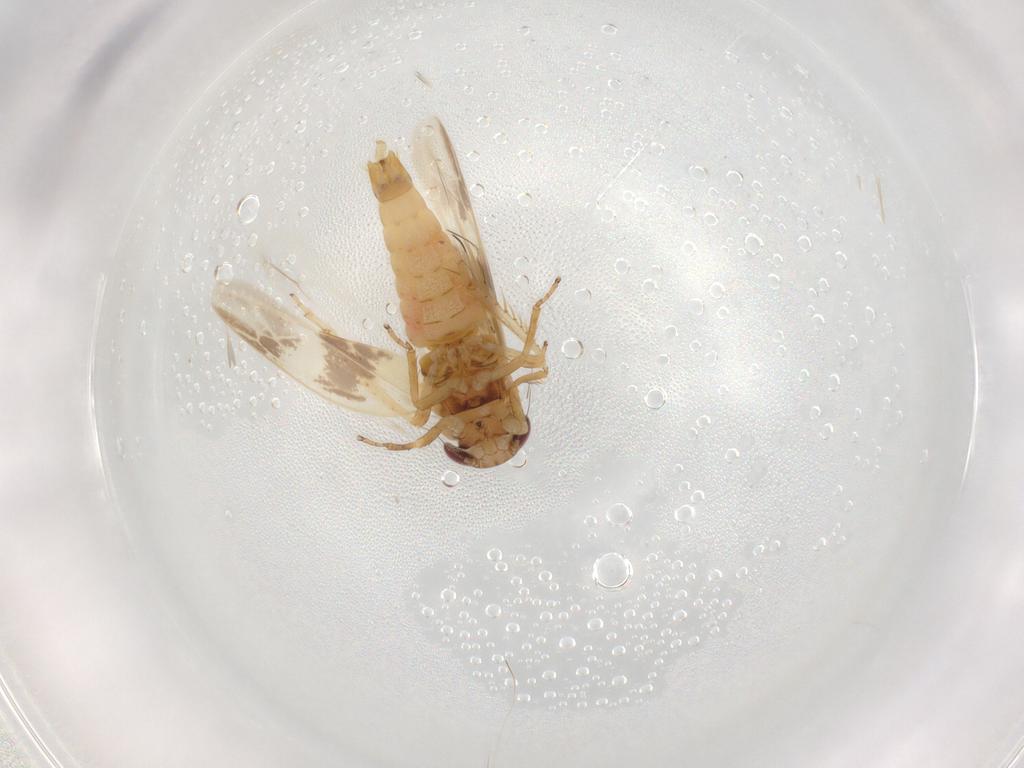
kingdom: Animalia
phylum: Arthropoda
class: Insecta
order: Hemiptera
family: Cicadellidae
